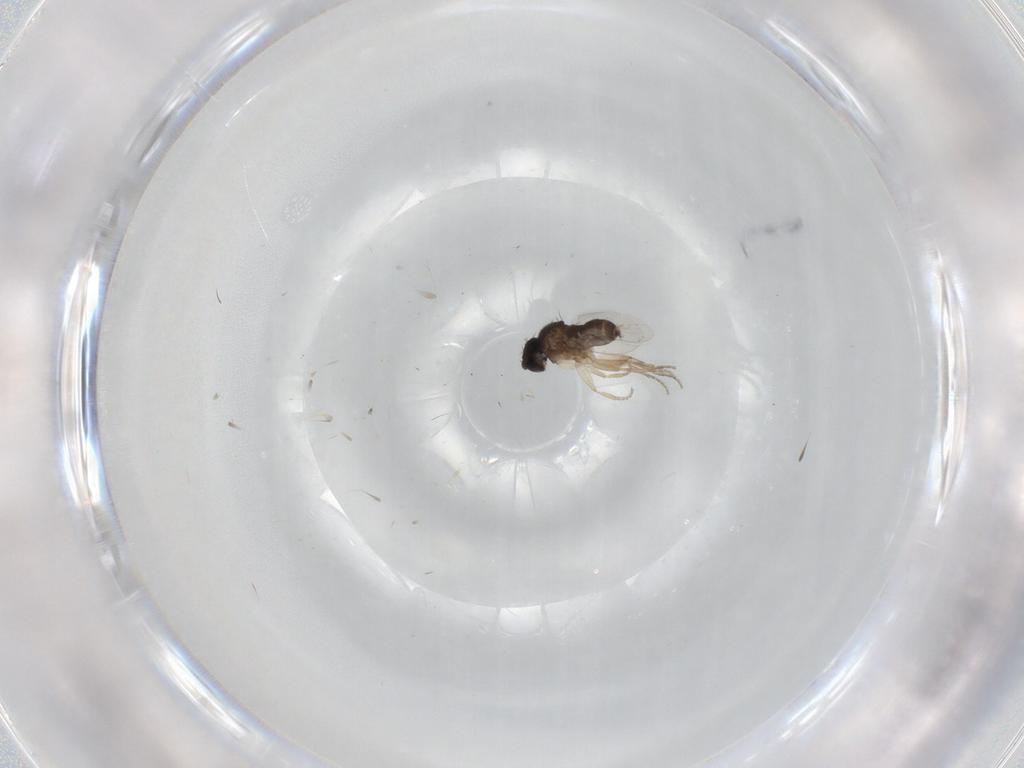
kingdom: Animalia
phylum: Arthropoda
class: Insecta
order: Diptera
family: Phoridae
